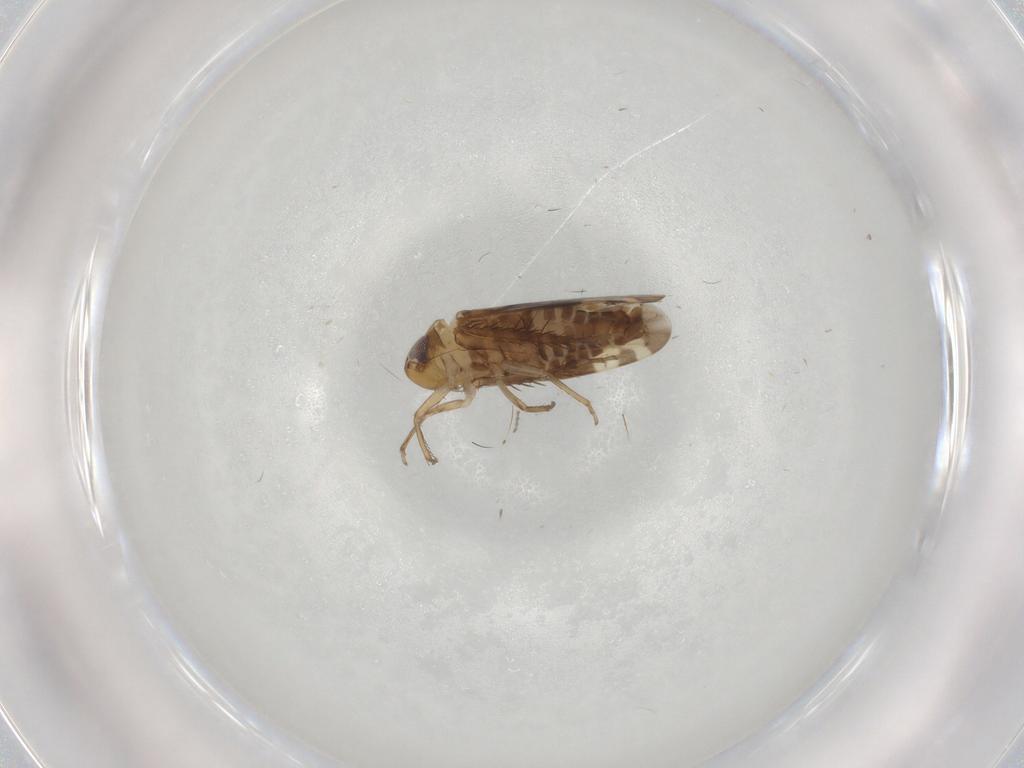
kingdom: Animalia
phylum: Arthropoda
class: Insecta
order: Hemiptera
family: Cicadellidae
